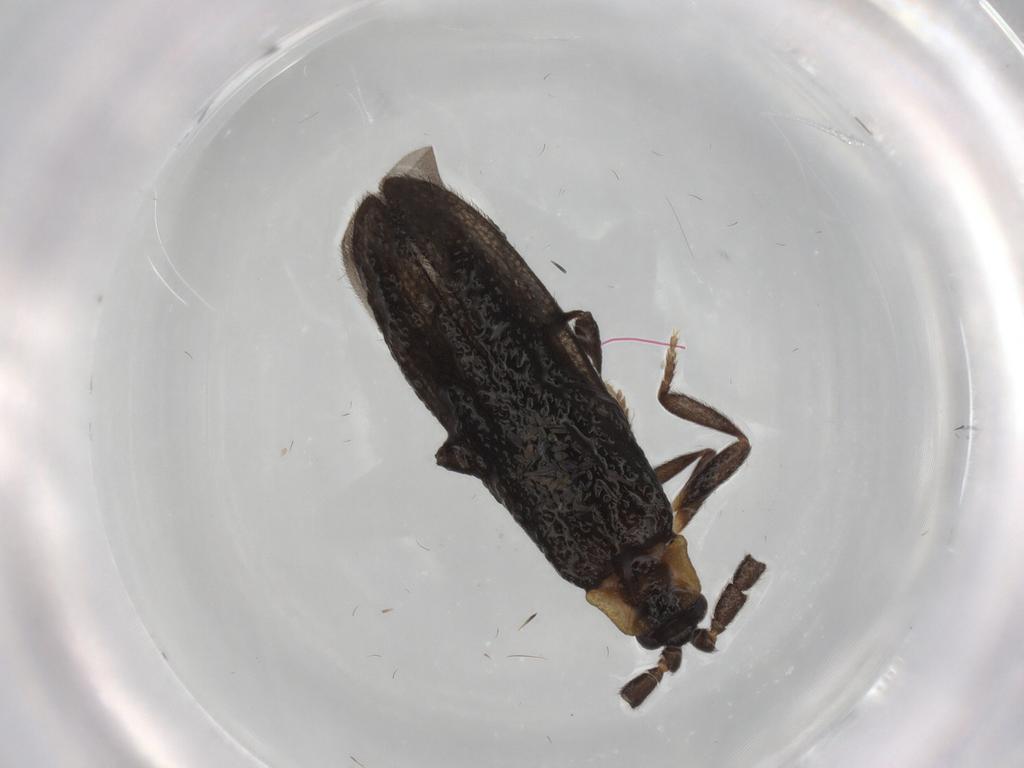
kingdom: Animalia
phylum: Arthropoda
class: Insecta
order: Coleoptera
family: Lycidae
